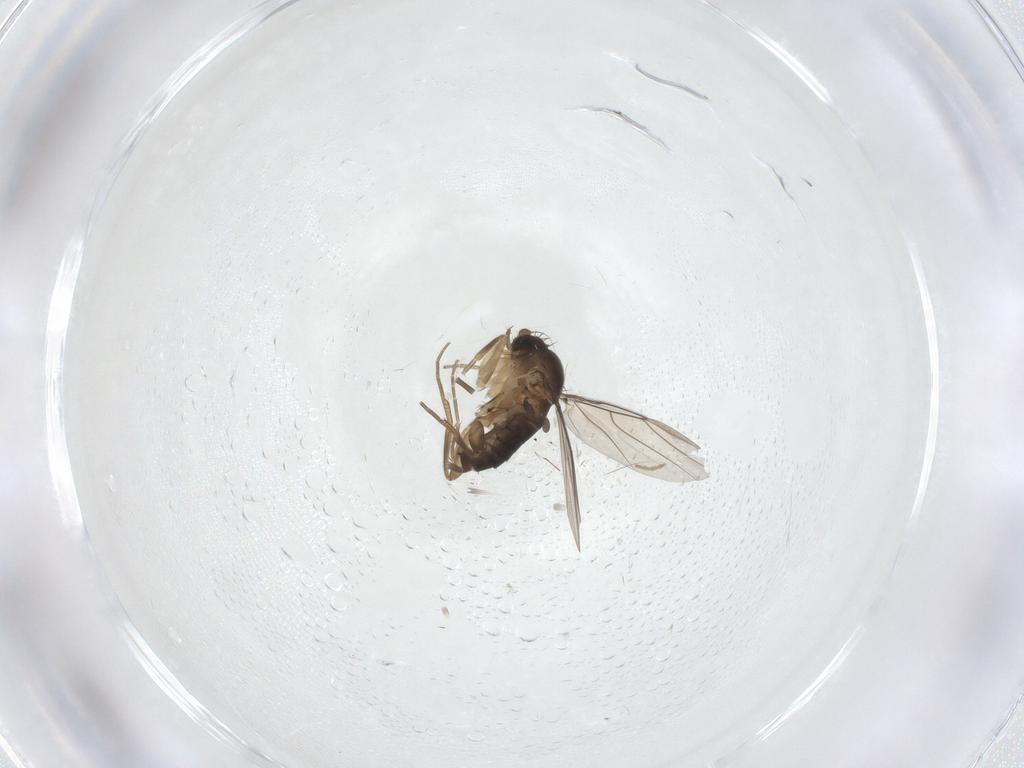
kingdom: Animalia
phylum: Arthropoda
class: Insecta
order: Diptera
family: Phoridae
